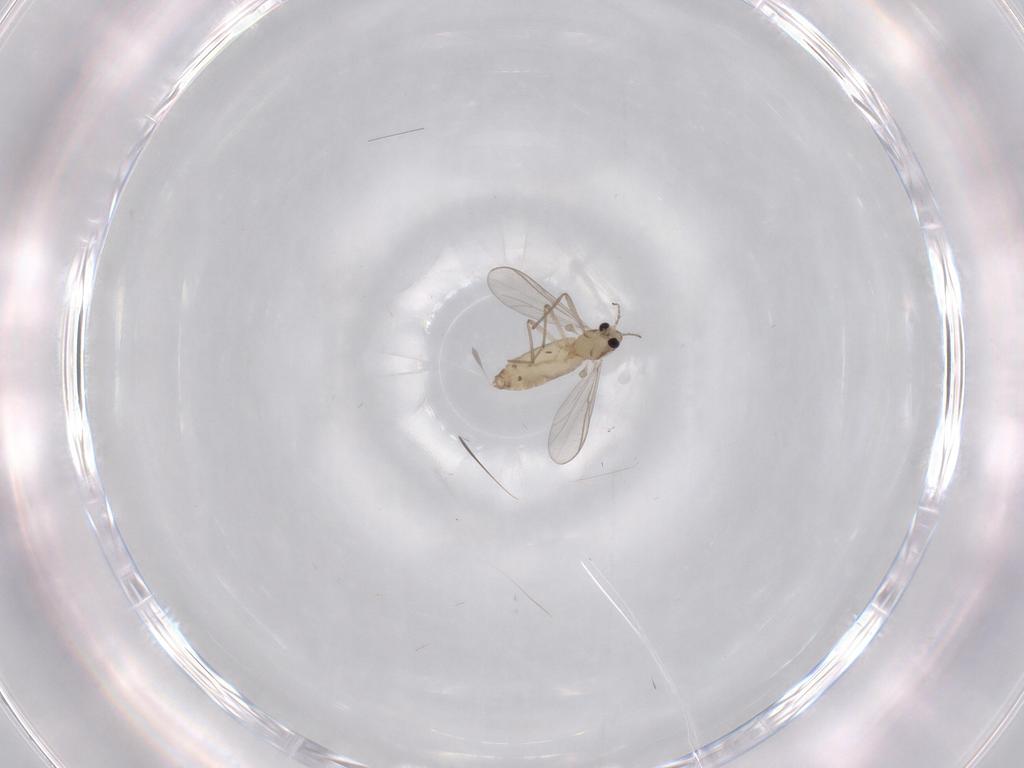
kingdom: Animalia
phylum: Arthropoda
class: Insecta
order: Diptera
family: Chironomidae
